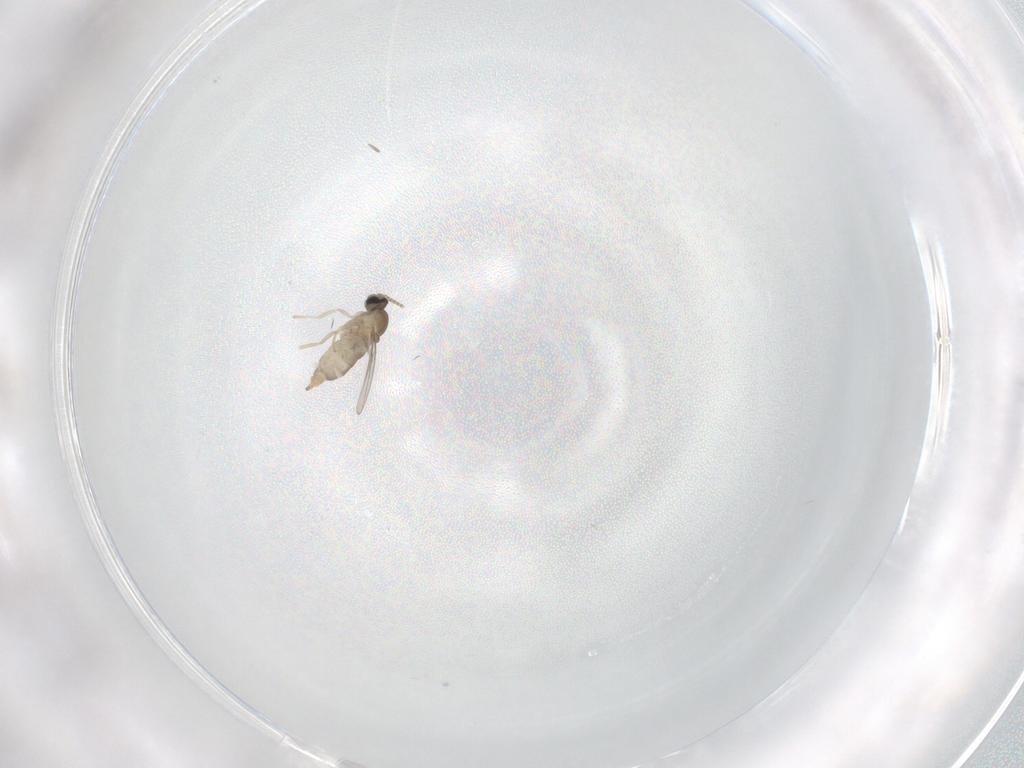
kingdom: Animalia
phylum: Arthropoda
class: Insecta
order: Diptera
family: Cecidomyiidae
